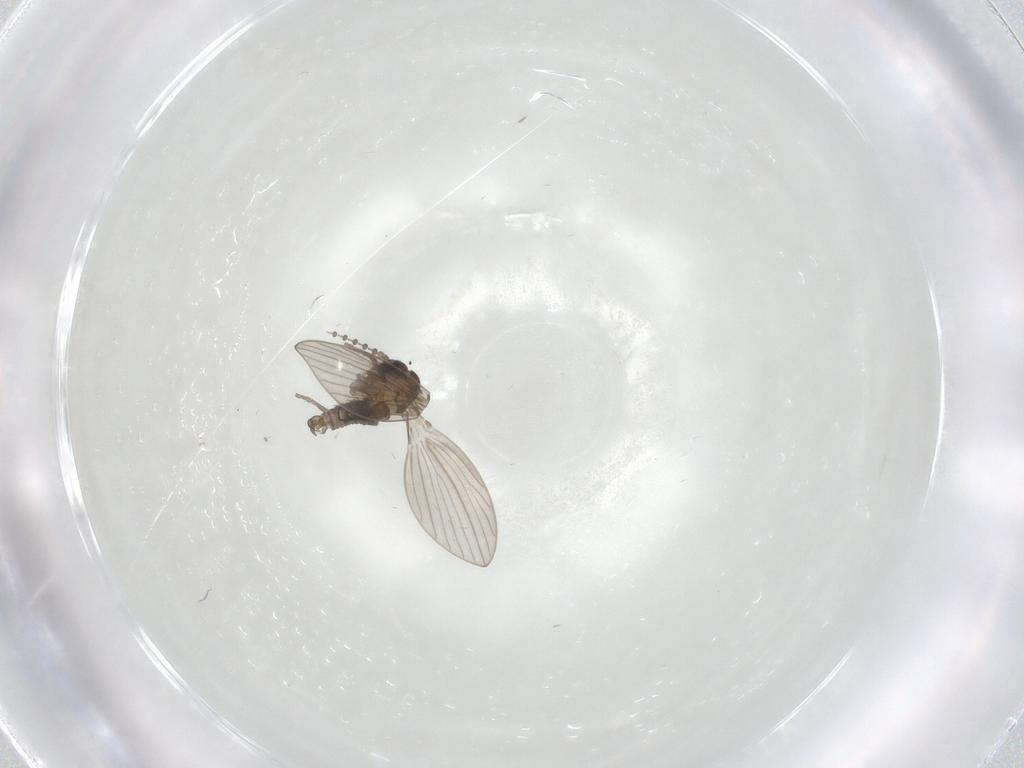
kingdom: Animalia
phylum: Arthropoda
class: Insecta
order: Diptera
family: Psychodidae
